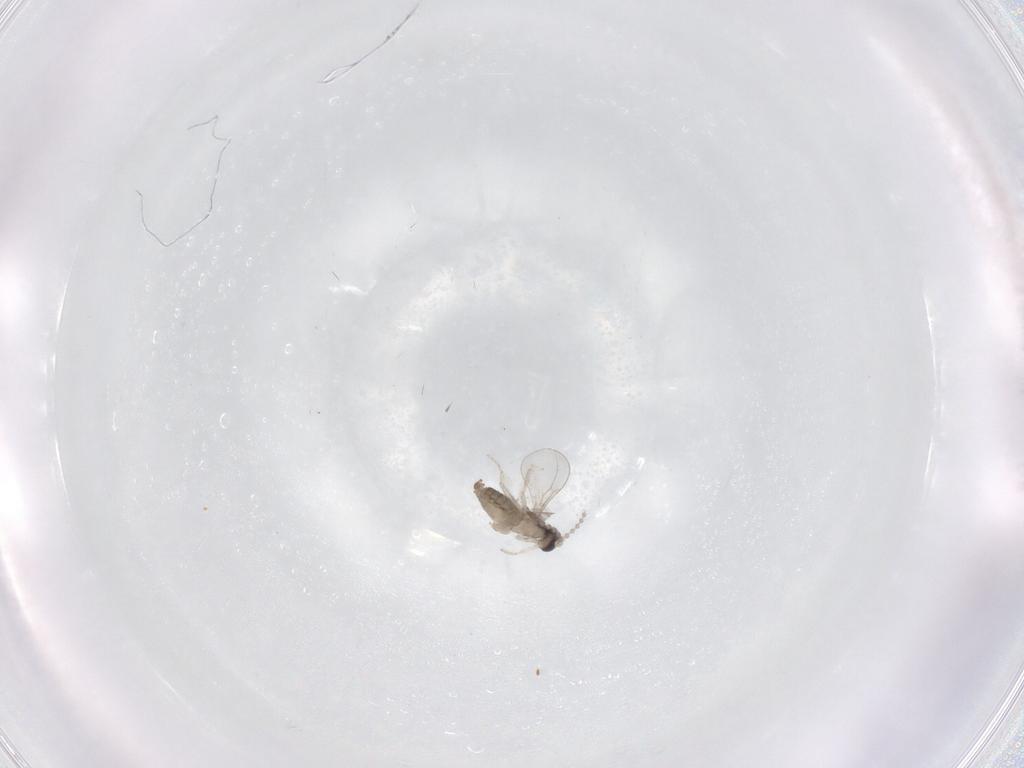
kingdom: Animalia
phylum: Arthropoda
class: Insecta
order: Diptera
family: Cecidomyiidae
